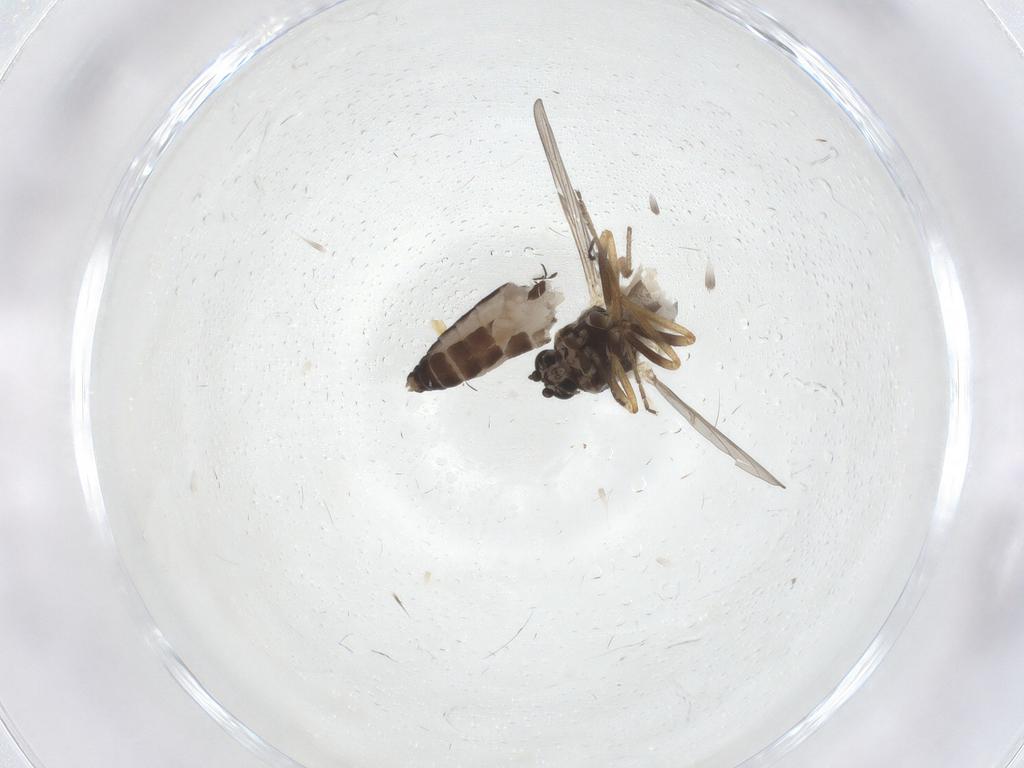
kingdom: Animalia
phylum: Arthropoda
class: Insecta
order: Diptera
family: Ceratopogonidae
